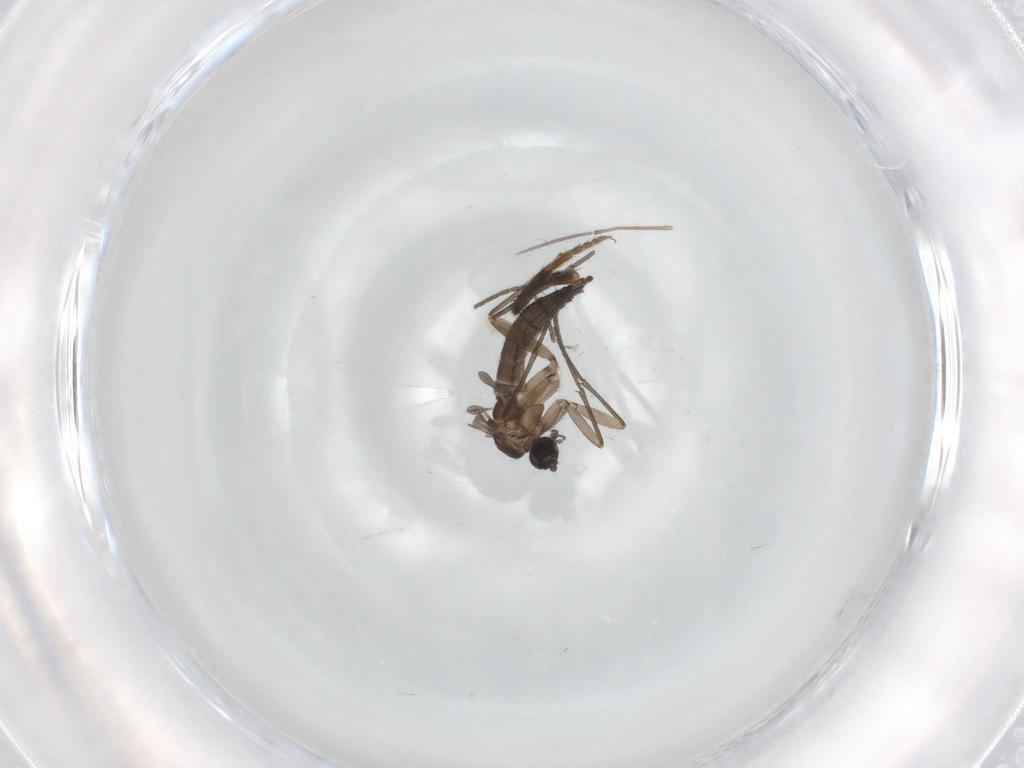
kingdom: Animalia
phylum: Arthropoda
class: Insecta
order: Diptera
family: Sciaridae
